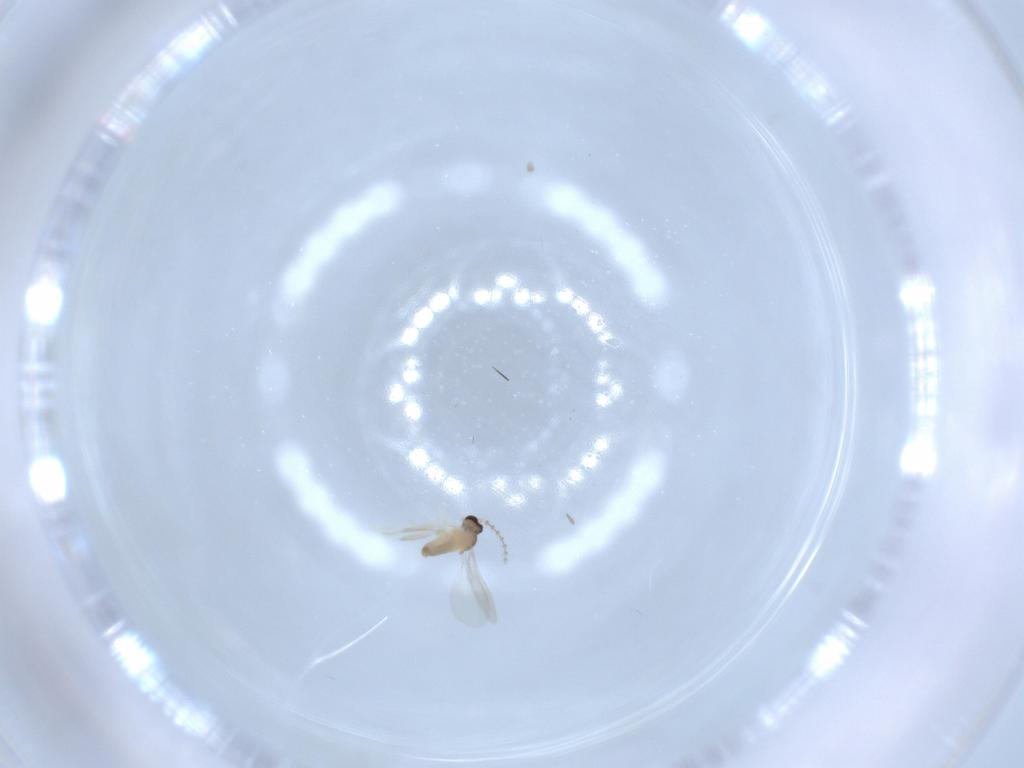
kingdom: Animalia
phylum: Arthropoda
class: Insecta
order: Diptera
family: Cecidomyiidae
